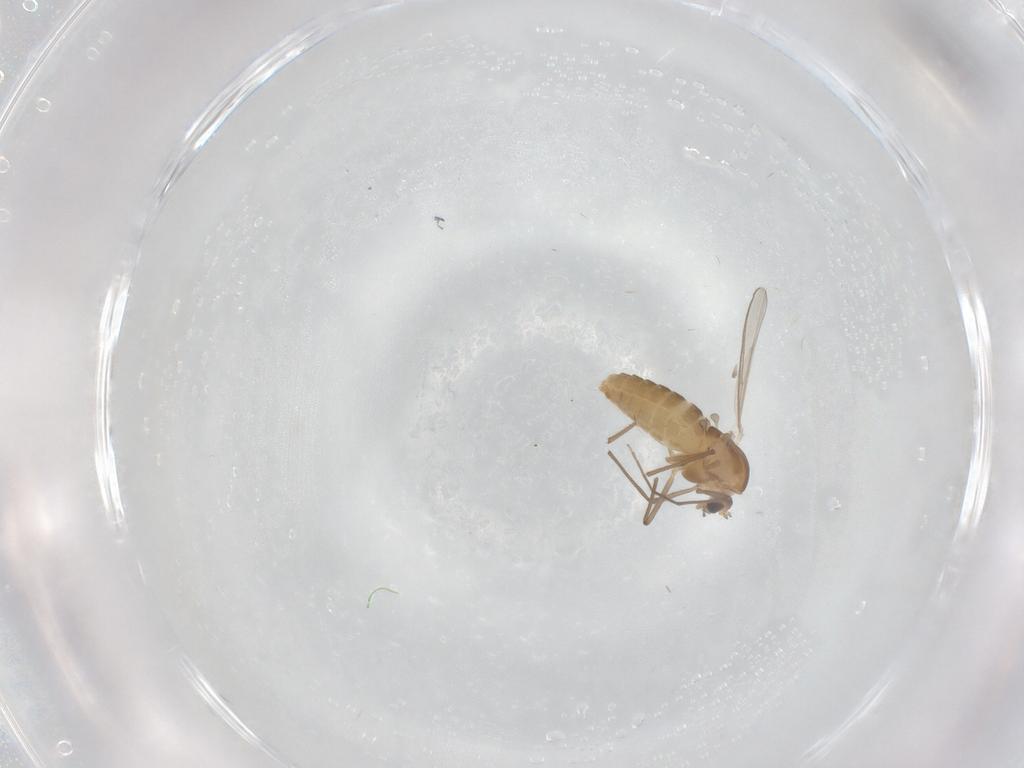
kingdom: Animalia
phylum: Arthropoda
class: Insecta
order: Diptera
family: Chironomidae
